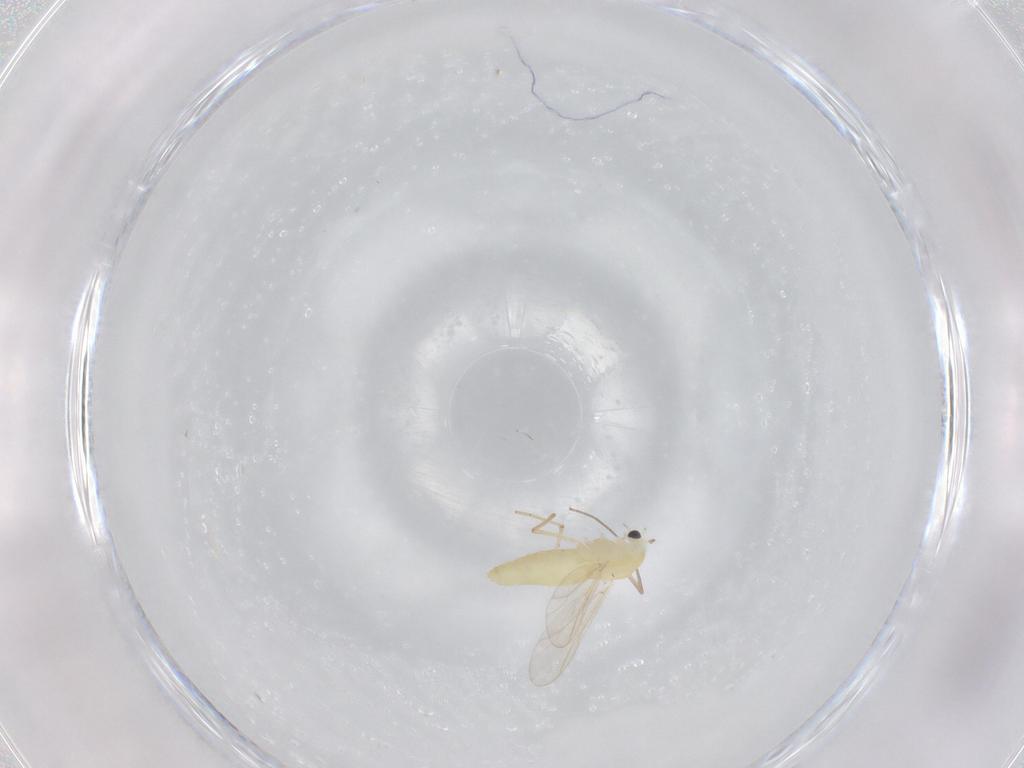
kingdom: Animalia
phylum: Arthropoda
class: Insecta
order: Diptera
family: Chironomidae
